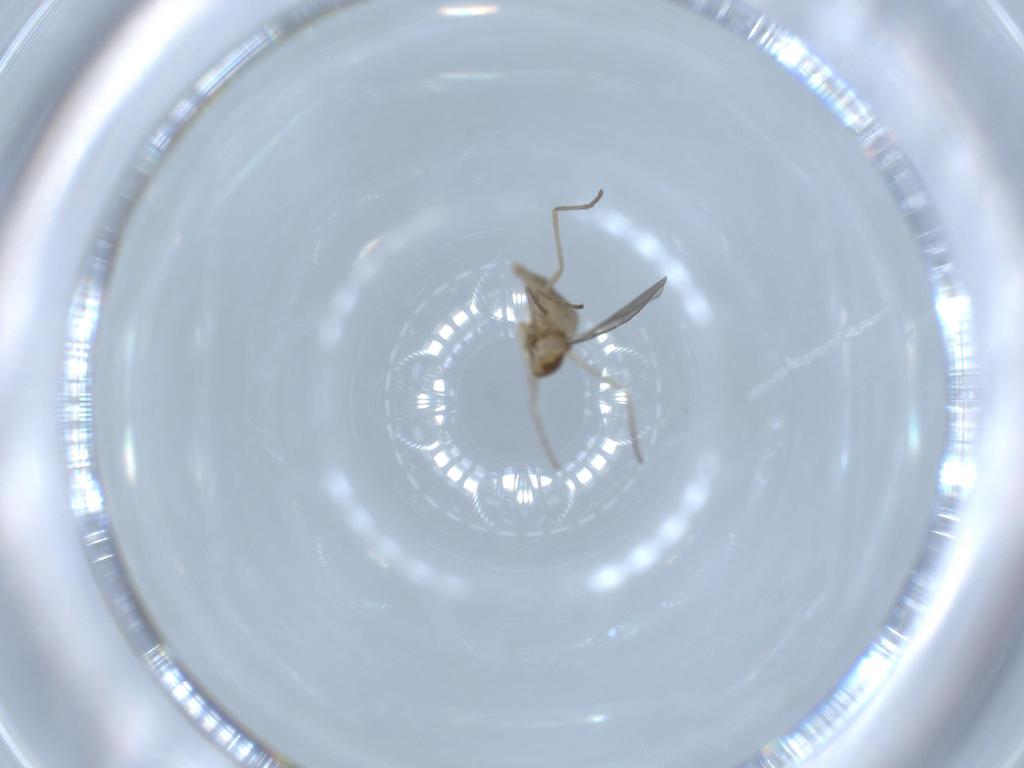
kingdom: Animalia
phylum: Arthropoda
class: Insecta
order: Diptera
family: Cecidomyiidae
